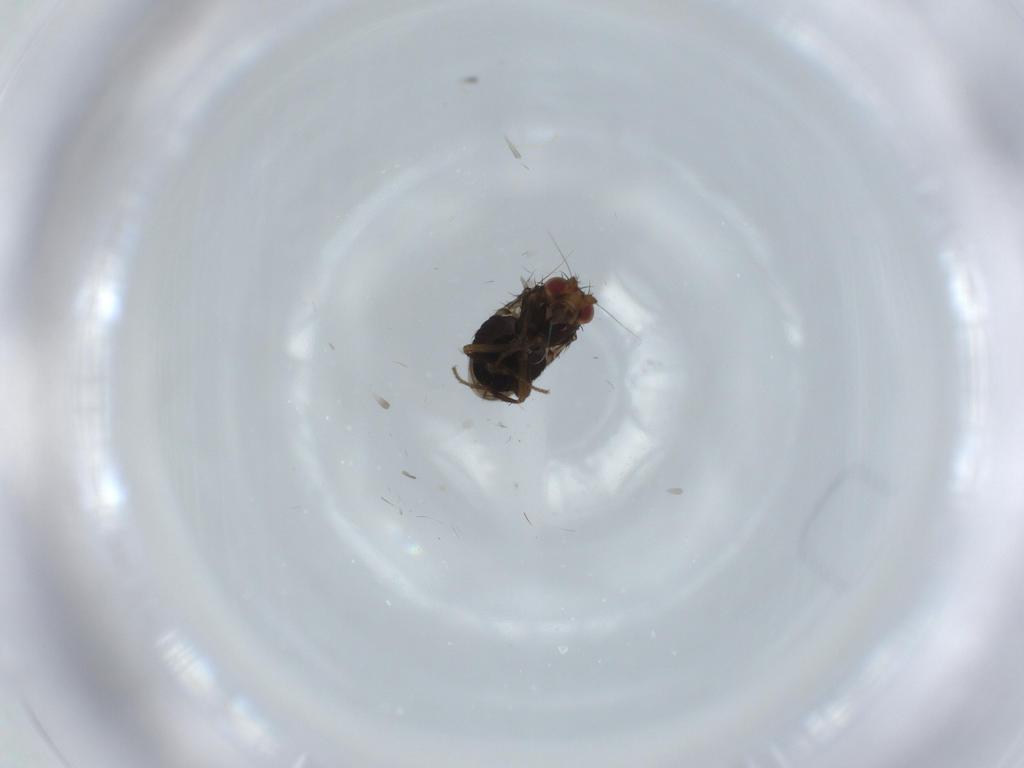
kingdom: Animalia
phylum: Arthropoda
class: Insecta
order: Diptera
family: Sphaeroceridae
